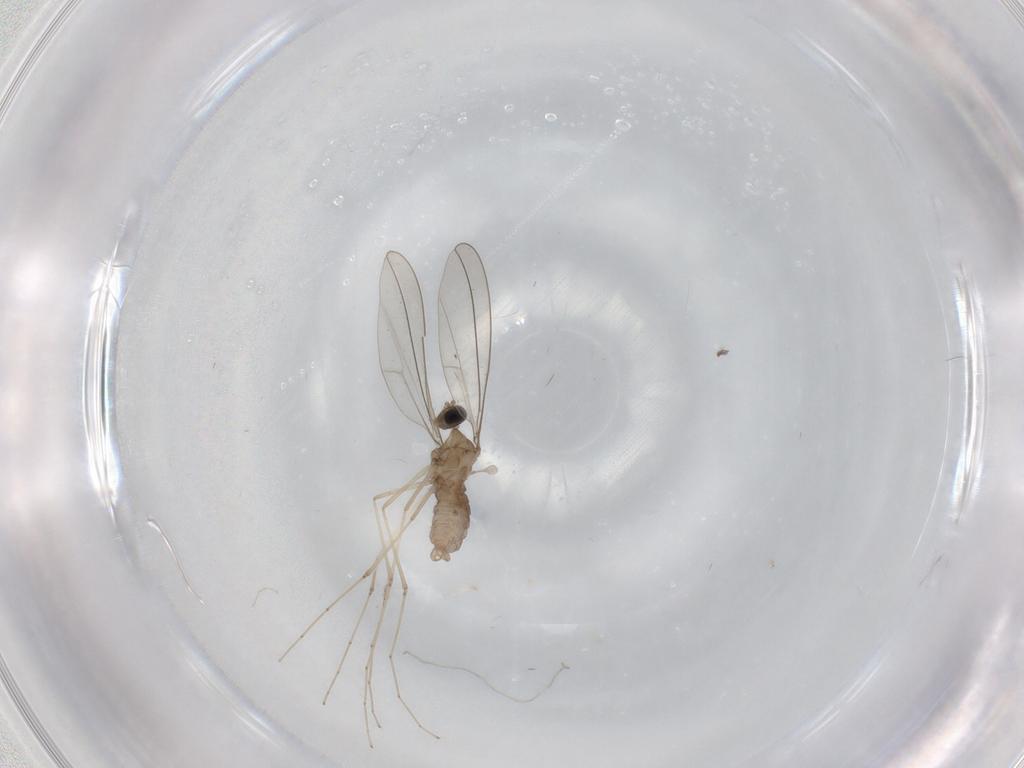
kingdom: Animalia
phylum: Arthropoda
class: Insecta
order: Diptera
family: Cecidomyiidae
